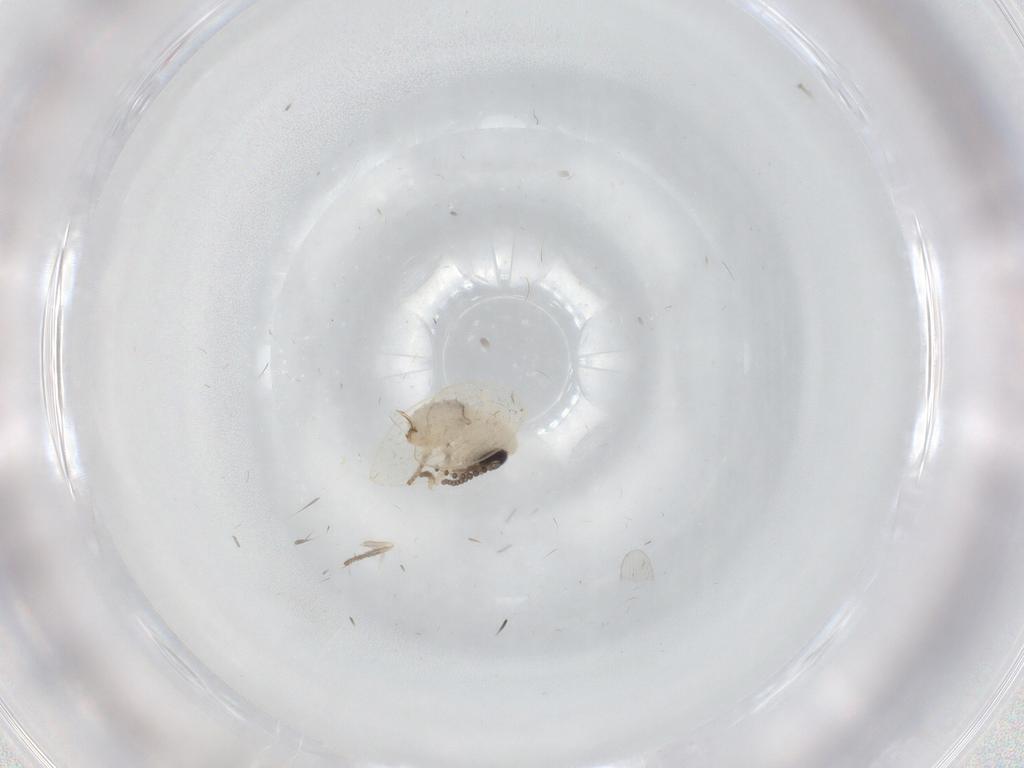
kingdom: Animalia
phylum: Arthropoda
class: Insecta
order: Diptera
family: Psychodidae
